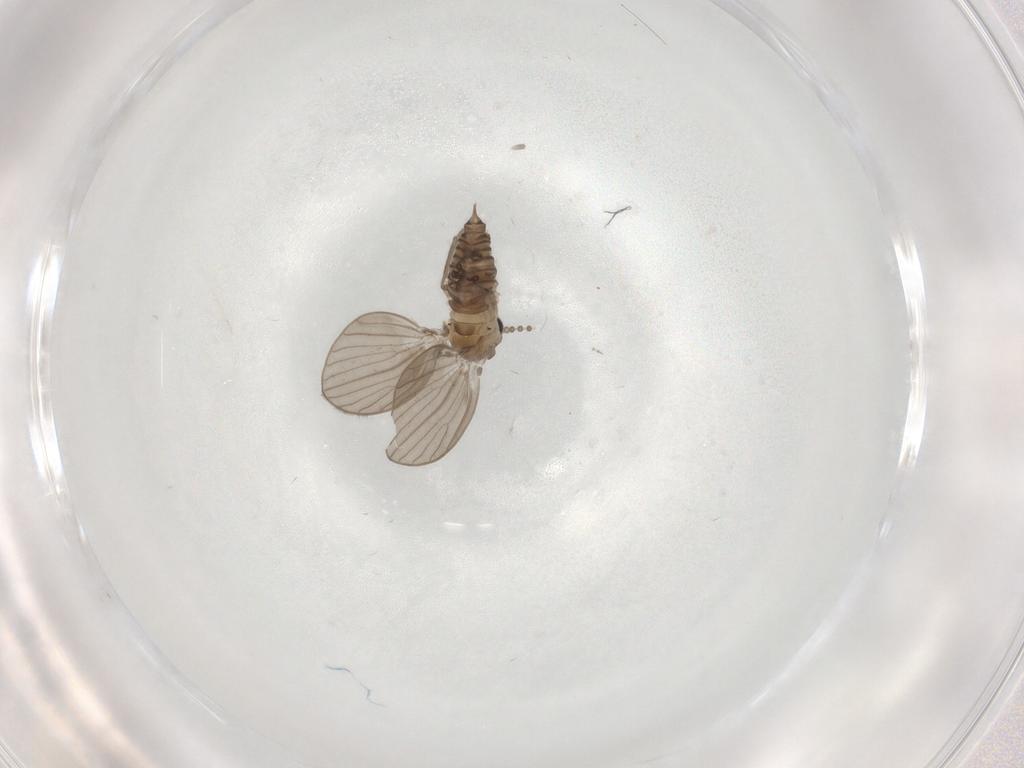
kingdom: Animalia
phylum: Arthropoda
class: Insecta
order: Diptera
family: Psychodidae
